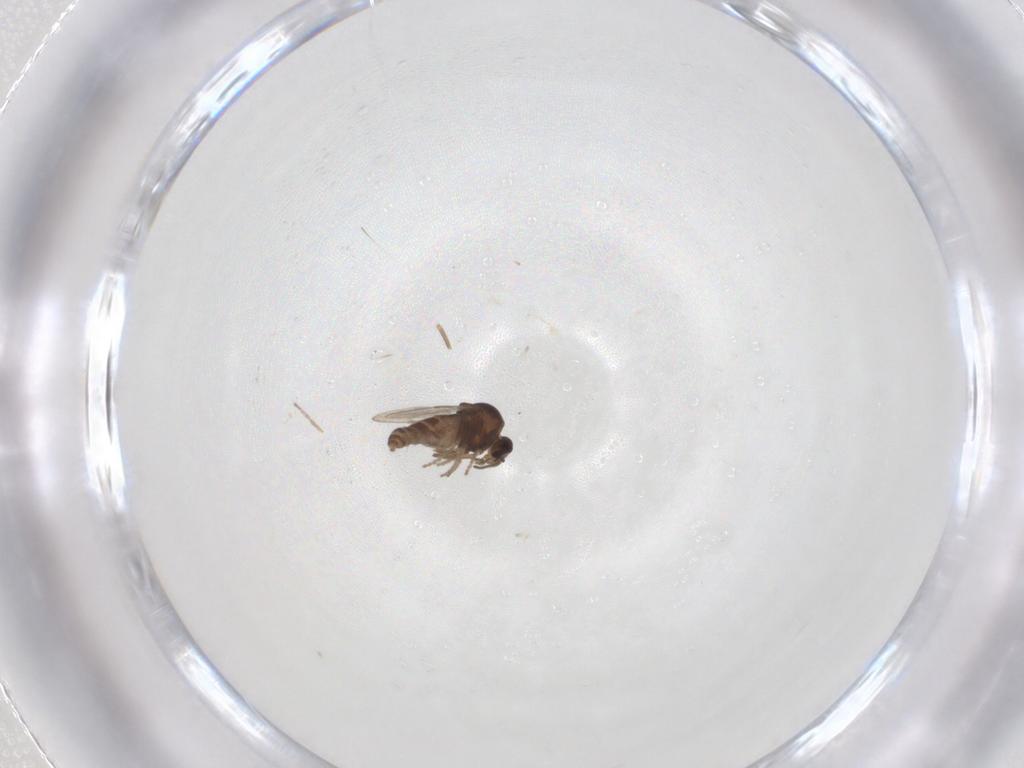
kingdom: Animalia
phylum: Arthropoda
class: Insecta
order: Diptera
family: Ceratopogonidae
